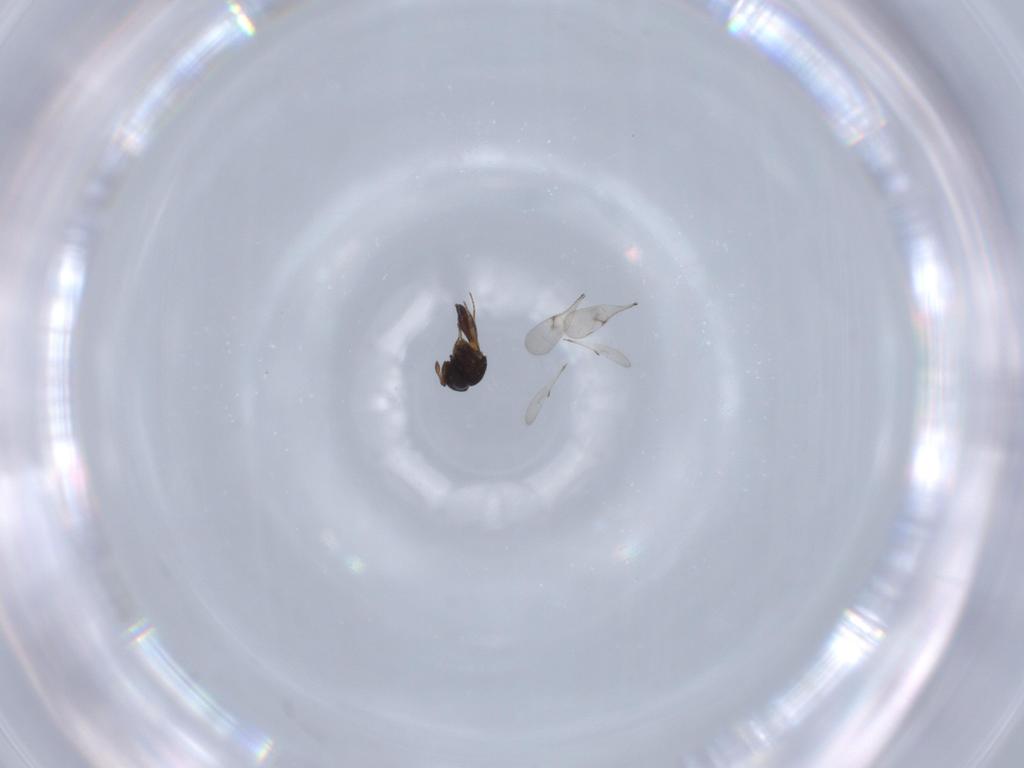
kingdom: Animalia
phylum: Arthropoda
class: Insecta
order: Hymenoptera
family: Scelionidae
